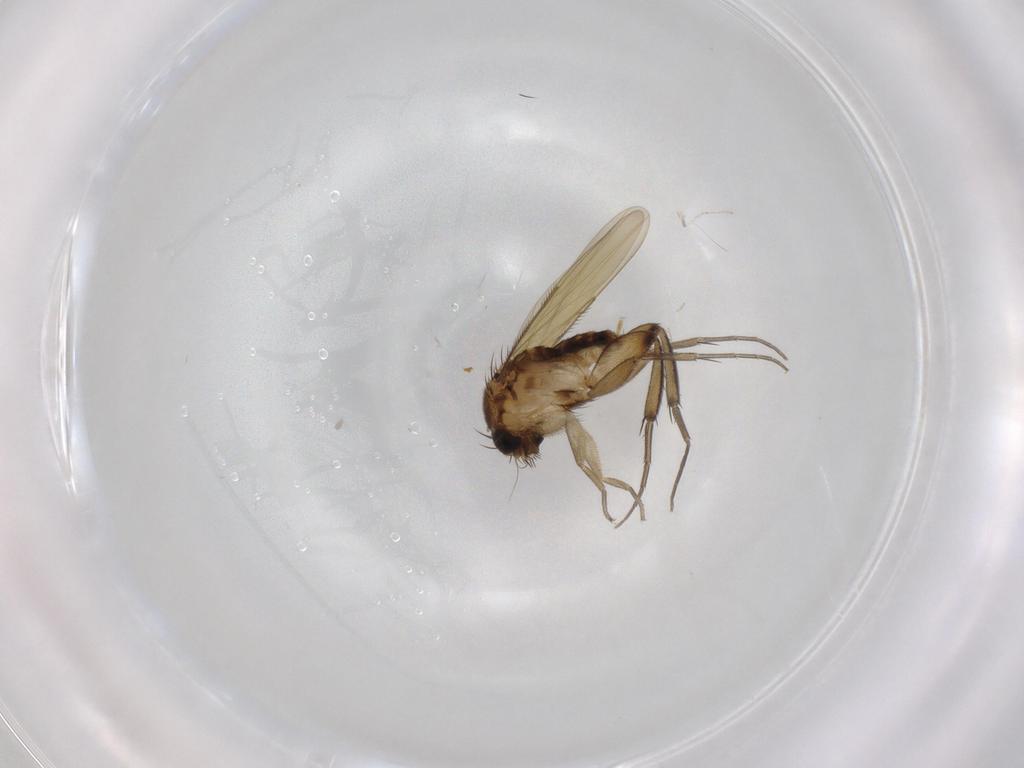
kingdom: Animalia
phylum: Arthropoda
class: Insecta
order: Diptera
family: Phoridae
